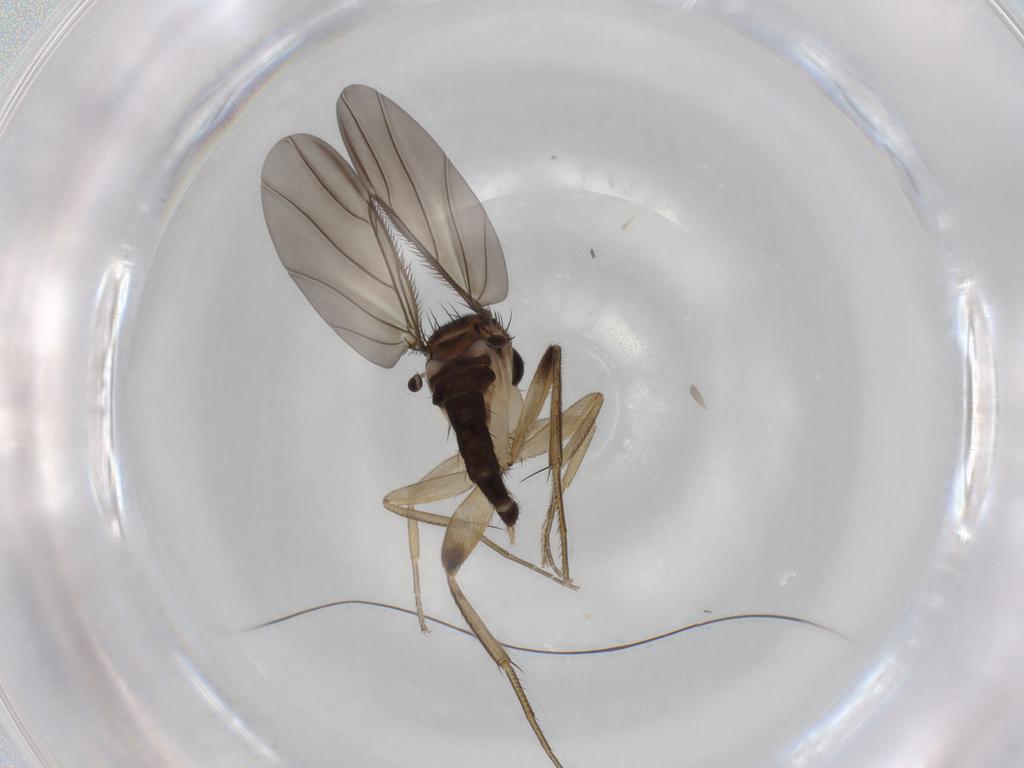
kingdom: Animalia
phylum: Arthropoda
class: Insecta
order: Diptera
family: Phoridae
